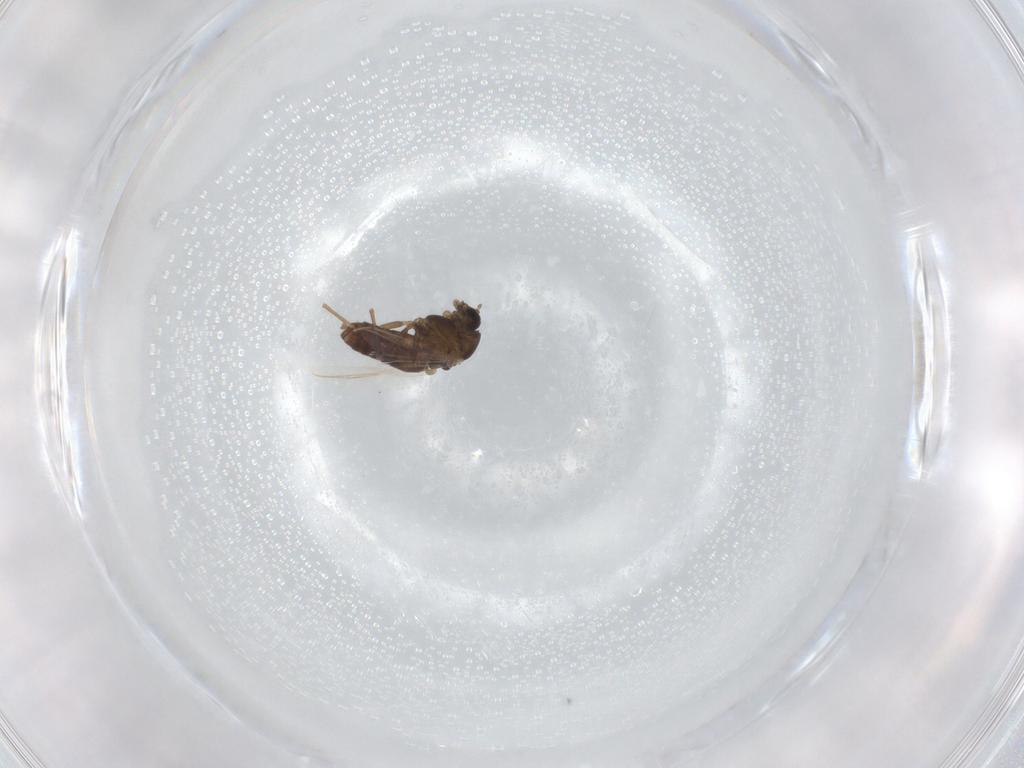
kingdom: Animalia
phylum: Arthropoda
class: Insecta
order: Diptera
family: Chironomidae
